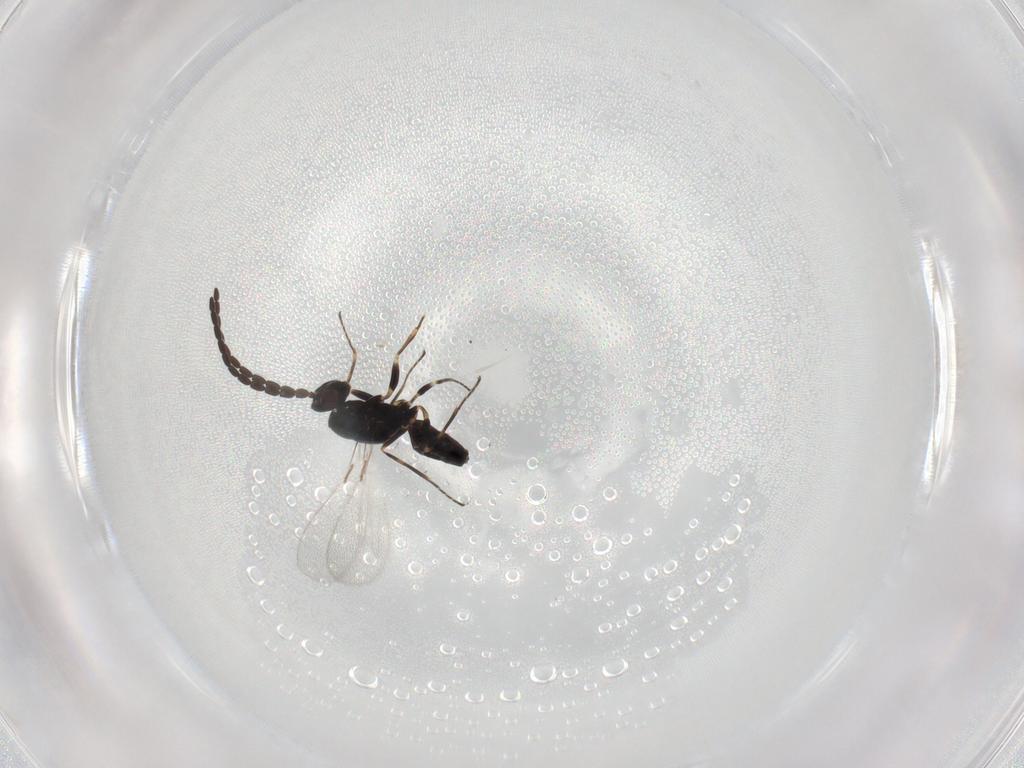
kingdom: Animalia
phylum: Arthropoda
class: Insecta
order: Hymenoptera
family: Mymaridae
